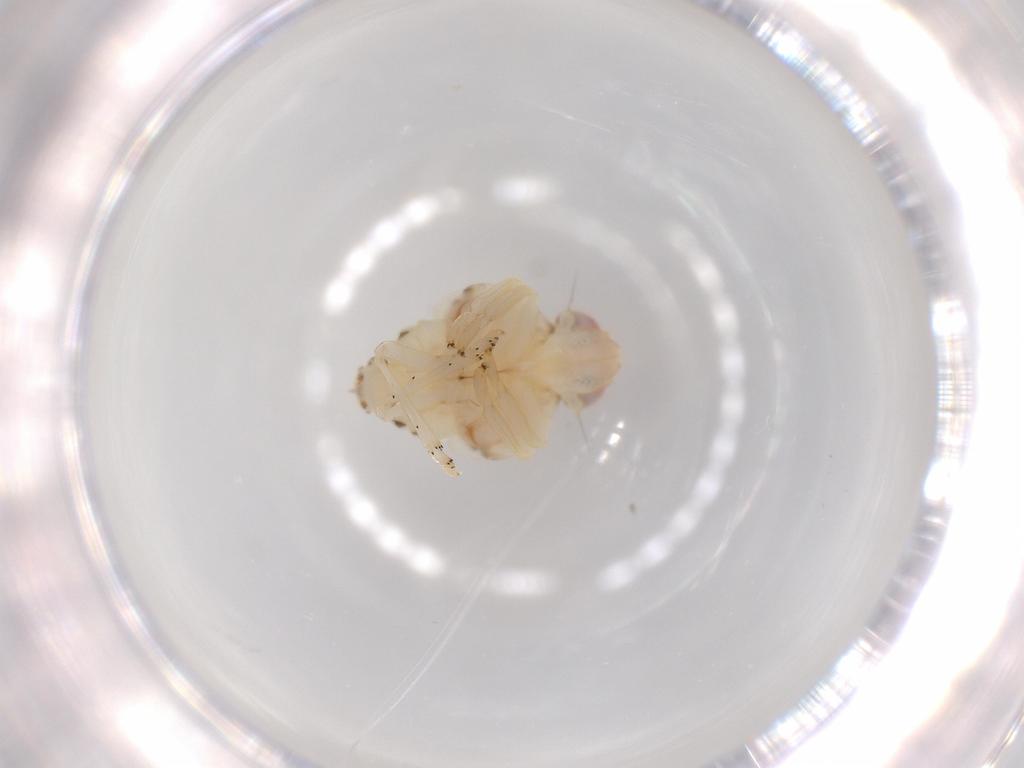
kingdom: Animalia
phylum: Arthropoda
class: Insecta
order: Hemiptera
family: Nogodinidae
